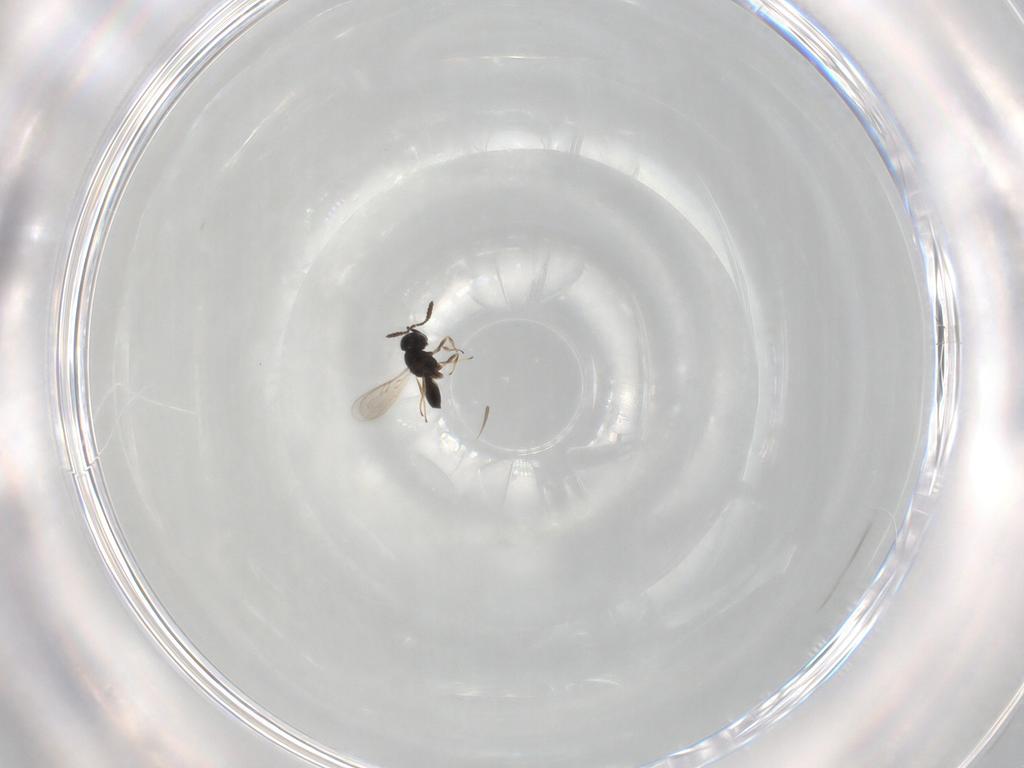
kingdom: Animalia
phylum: Arthropoda
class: Insecta
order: Hymenoptera
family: Scelionidae
